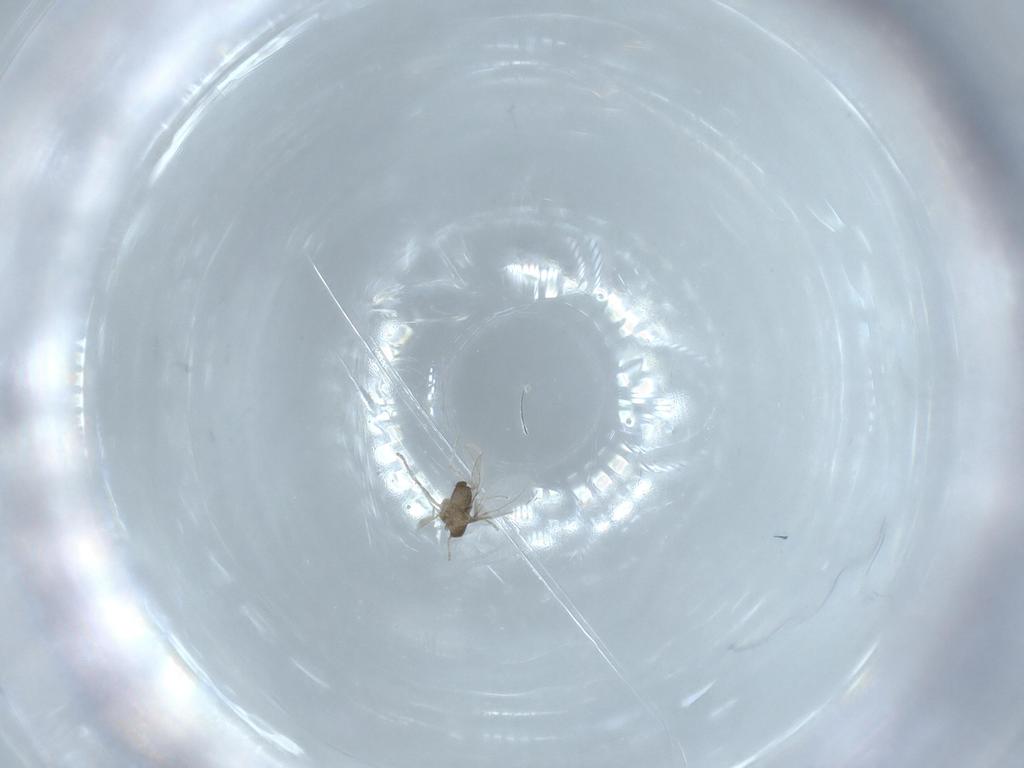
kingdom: Animalia
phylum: Arthropoda
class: Insecta
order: Diptera
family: Cecidomyiidae
